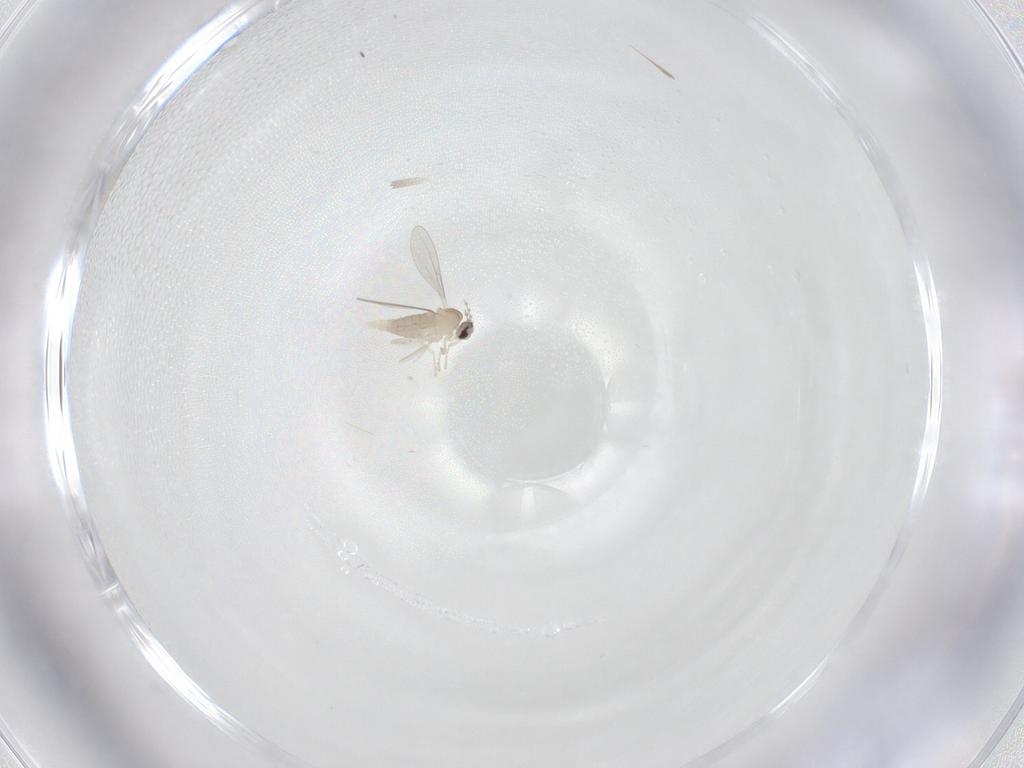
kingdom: Animalia
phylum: Arthropoda
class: Insecta
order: Diptera
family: Cecidomyiidae
